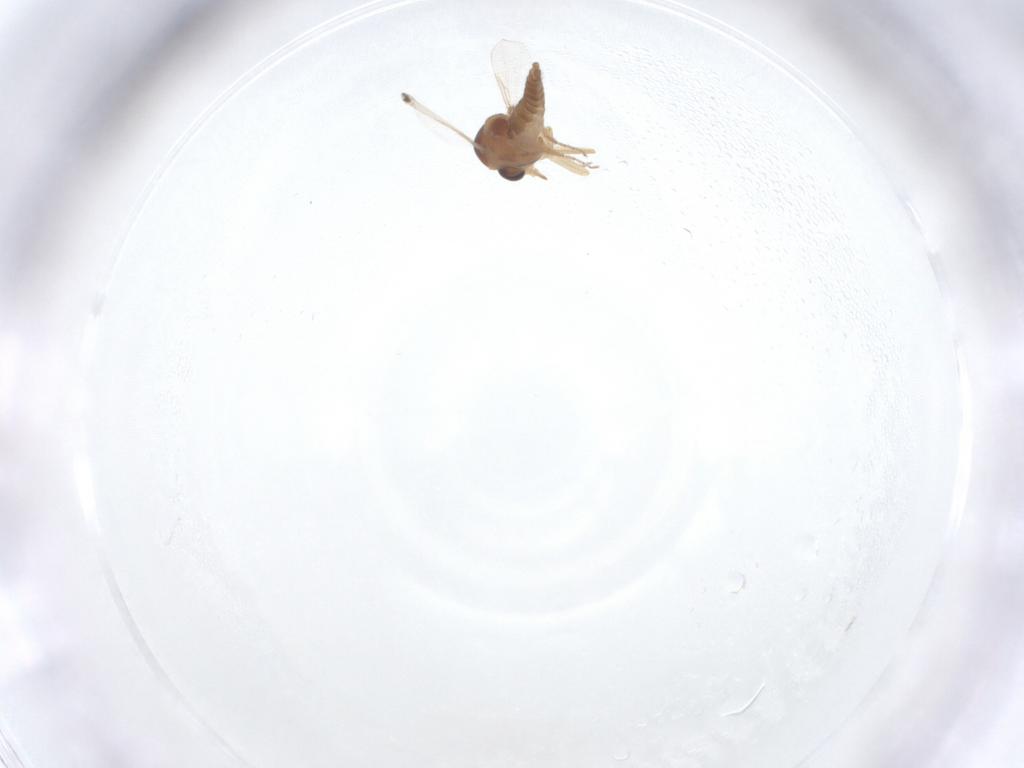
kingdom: Animalia
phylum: Arthropoda
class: Insecta
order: Diptera
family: Ceratopogonidae
